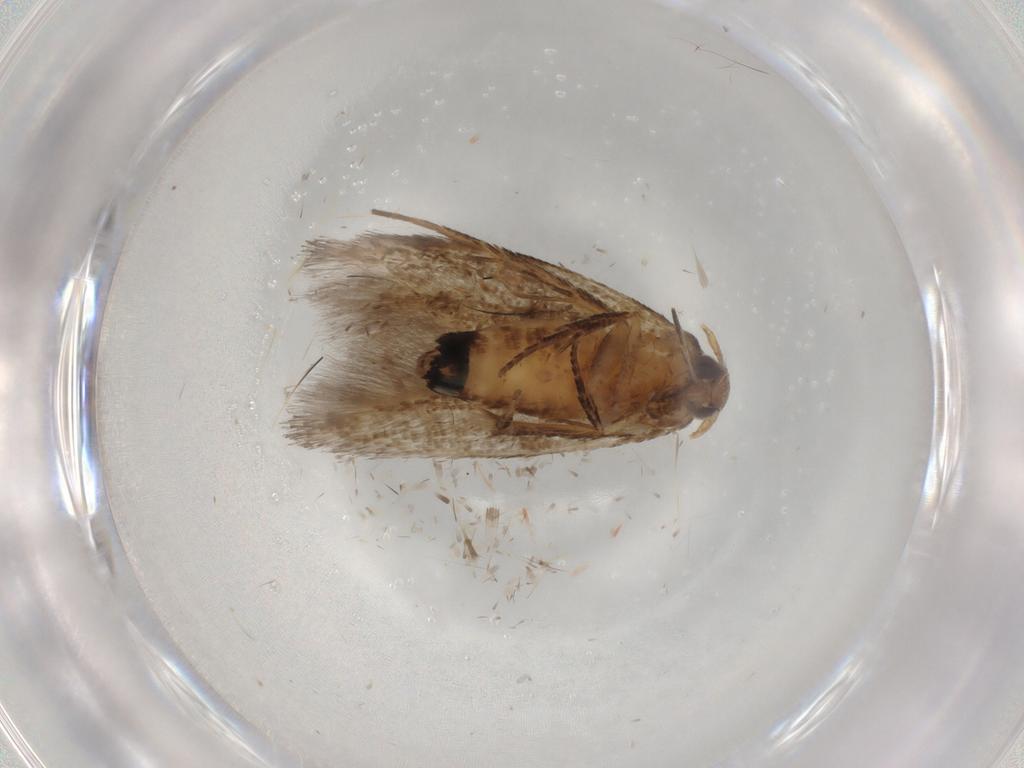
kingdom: Animalia
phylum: Arthropoda
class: Insecta
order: Lepidoptera
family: Cosmopterigidae
